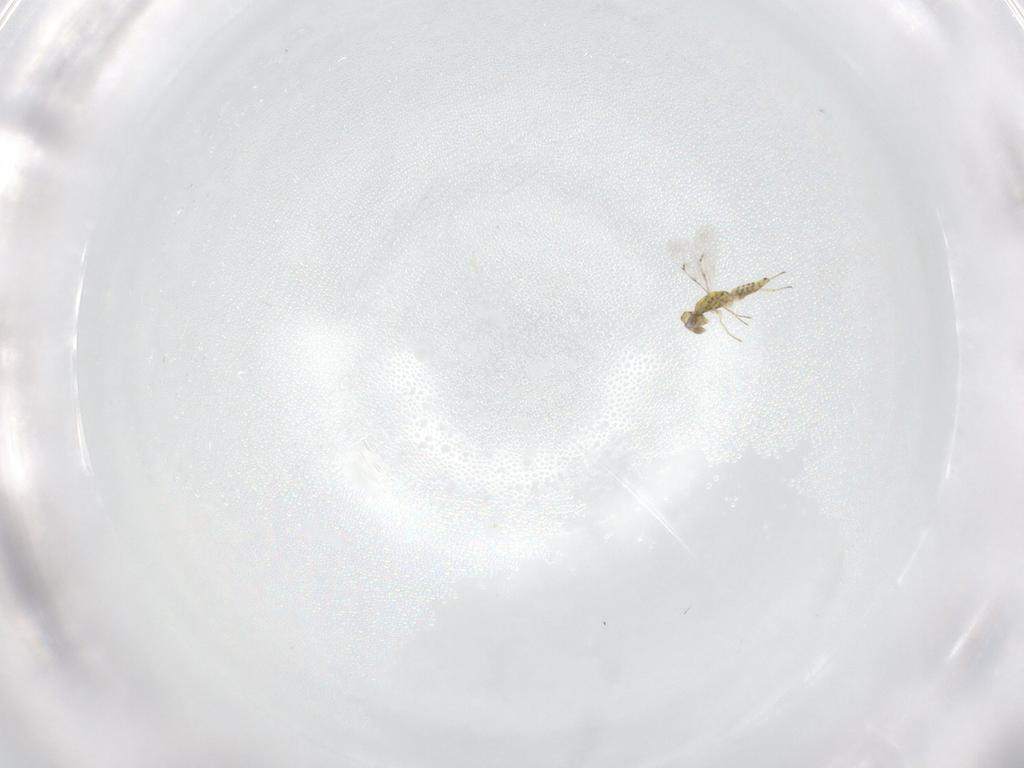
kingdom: Animalia
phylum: Arthropoda
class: Insecta
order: Hymenoptera
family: Eulophidae
